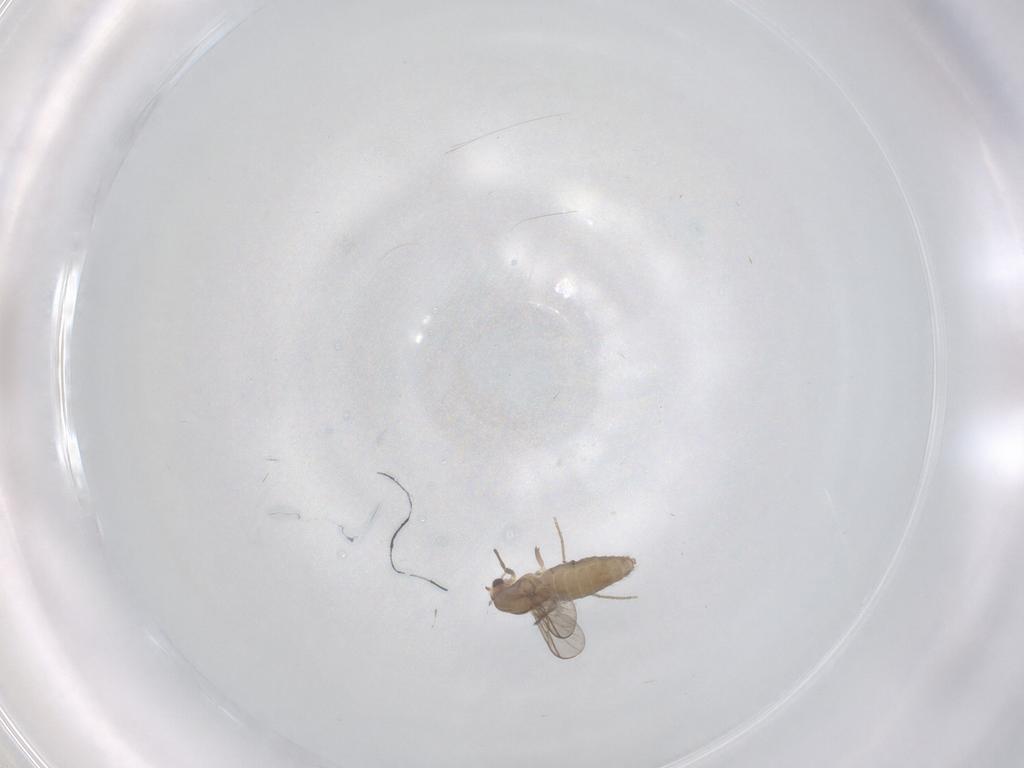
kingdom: Animalia
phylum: Arthropoda
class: Insecta
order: Diptera
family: Chironomidae
